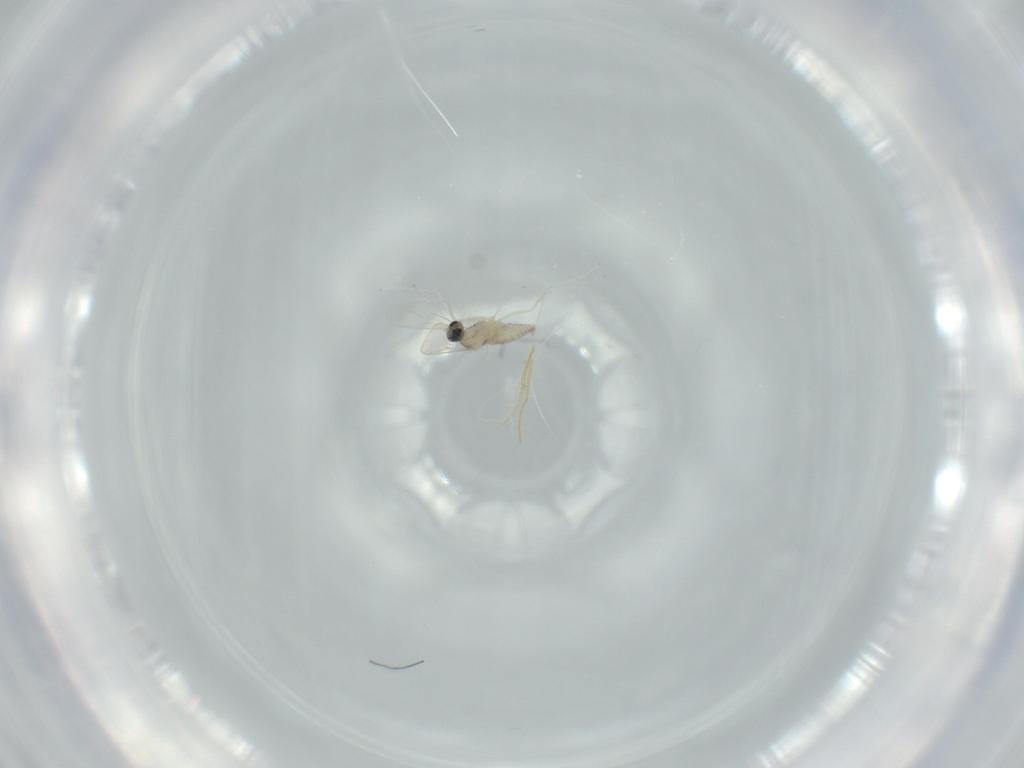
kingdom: Animalia
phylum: Arthropoda
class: Insecta
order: Diptera
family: Cecidomyiidae
